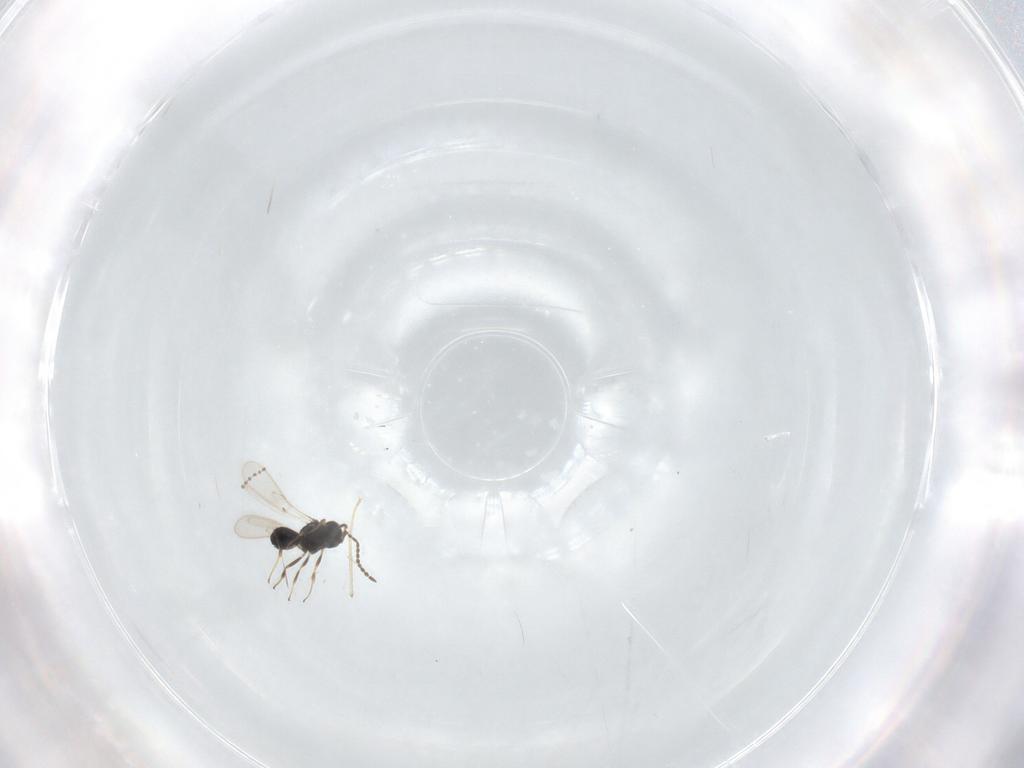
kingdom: Animalia
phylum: Arthropoda
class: Insecta
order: Hymenoptera
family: Scelionidae
